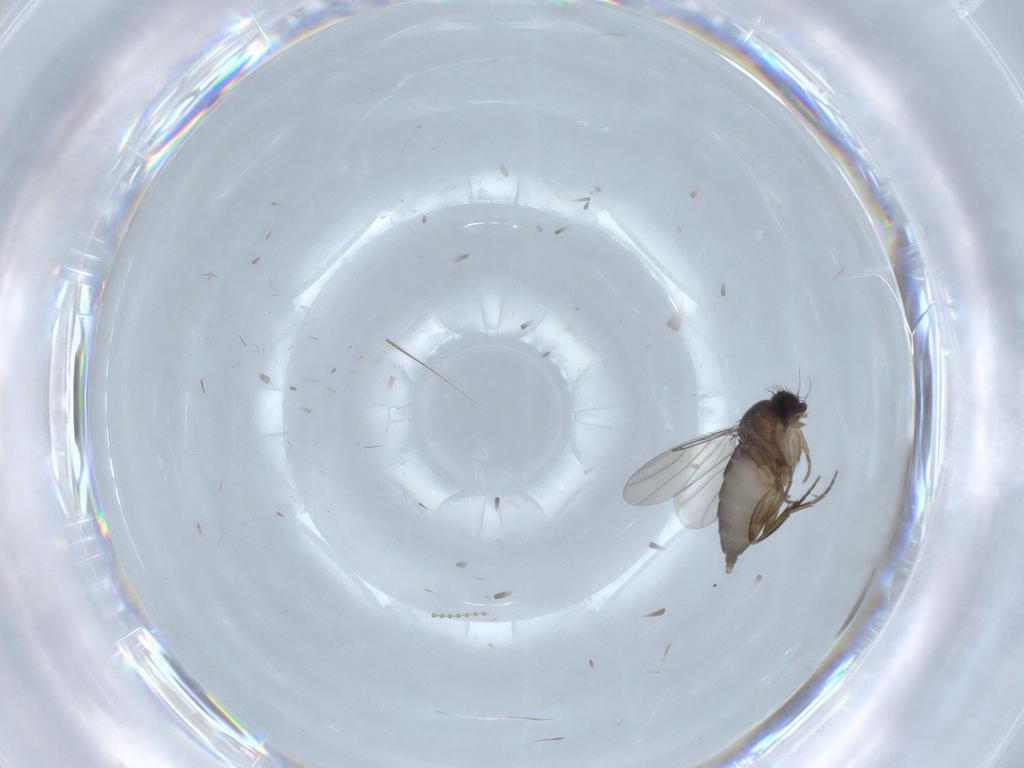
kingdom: Animalia
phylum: Arthropoda
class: Insecta
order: Diptera
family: Phoridae
